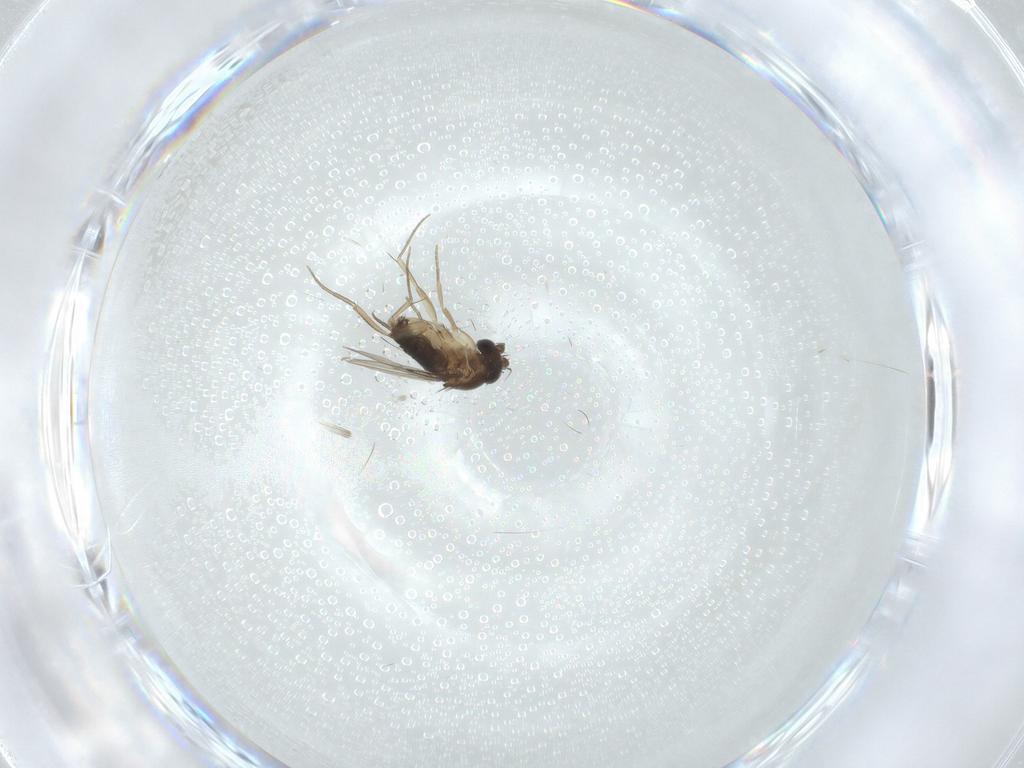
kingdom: Animalia
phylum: Arthropoda
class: Insecta
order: Diptera
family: Phoridae
